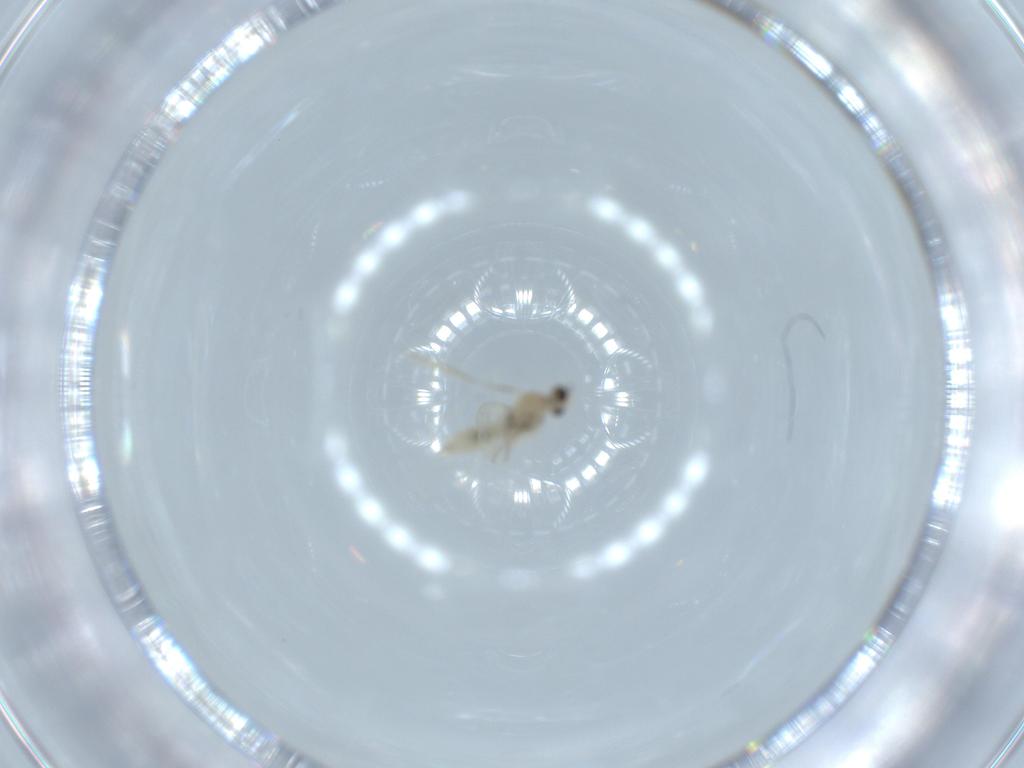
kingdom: Animalia
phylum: Arthropoda
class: Insecta
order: Diptera
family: Cecidomyiidae
